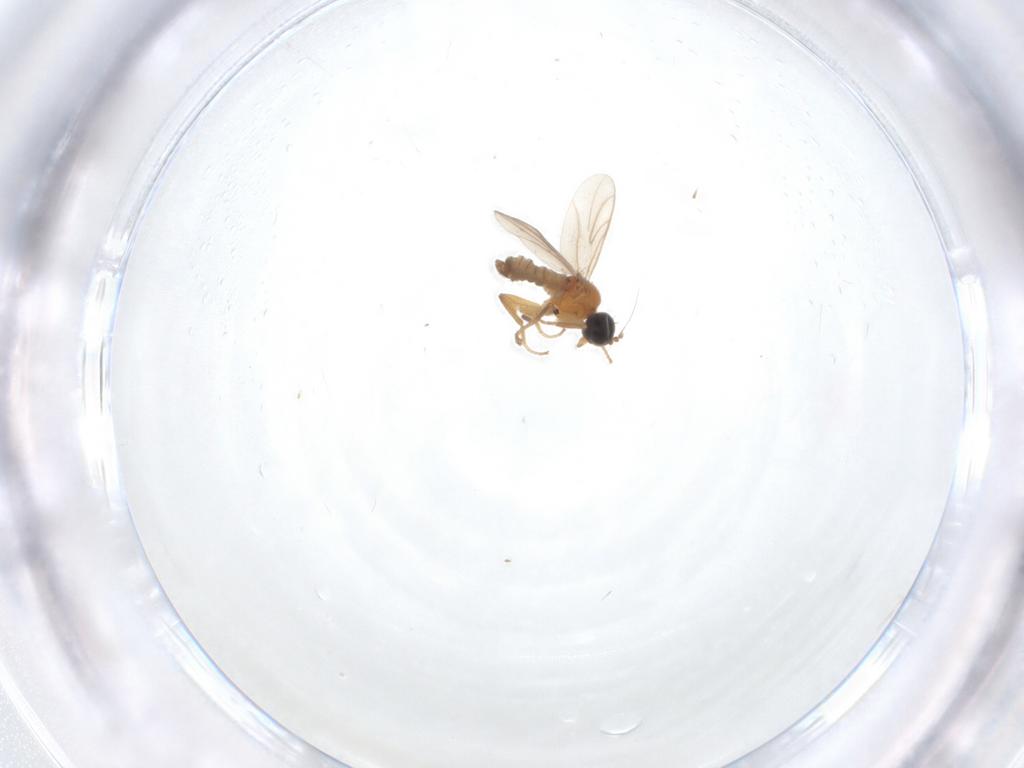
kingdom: Animalia
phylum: Arthropoda
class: Insecta
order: Diptera
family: Hybotidae
